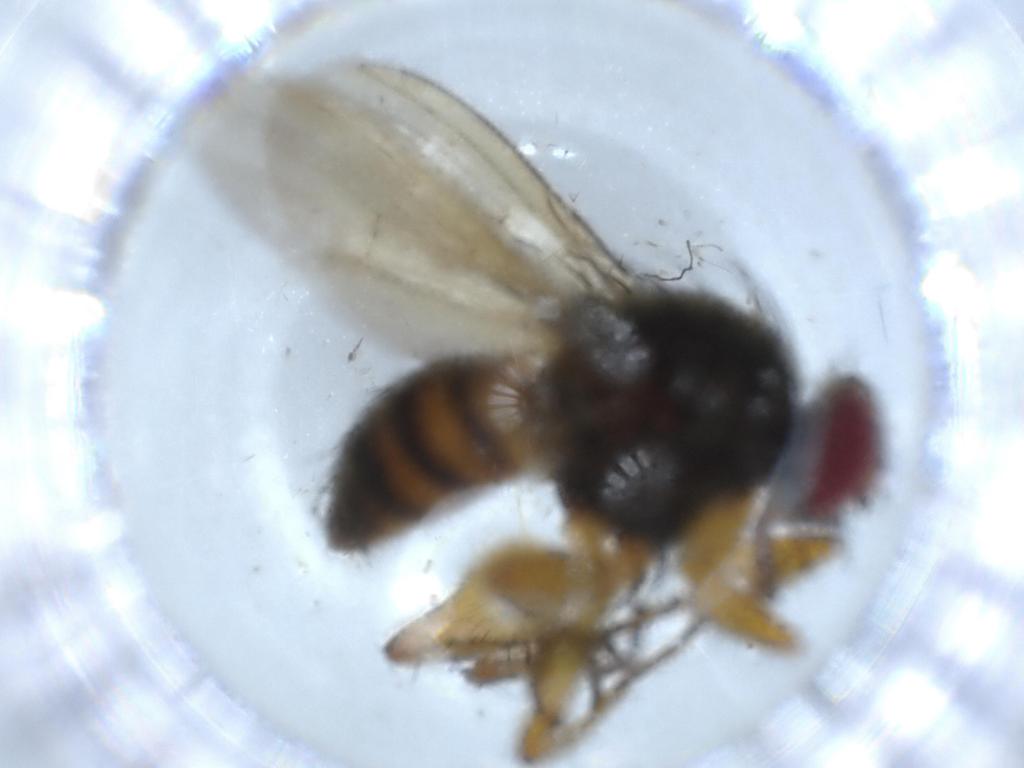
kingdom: Animalia
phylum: Arthropoda
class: Insecta
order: Diptera
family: Muscidae
